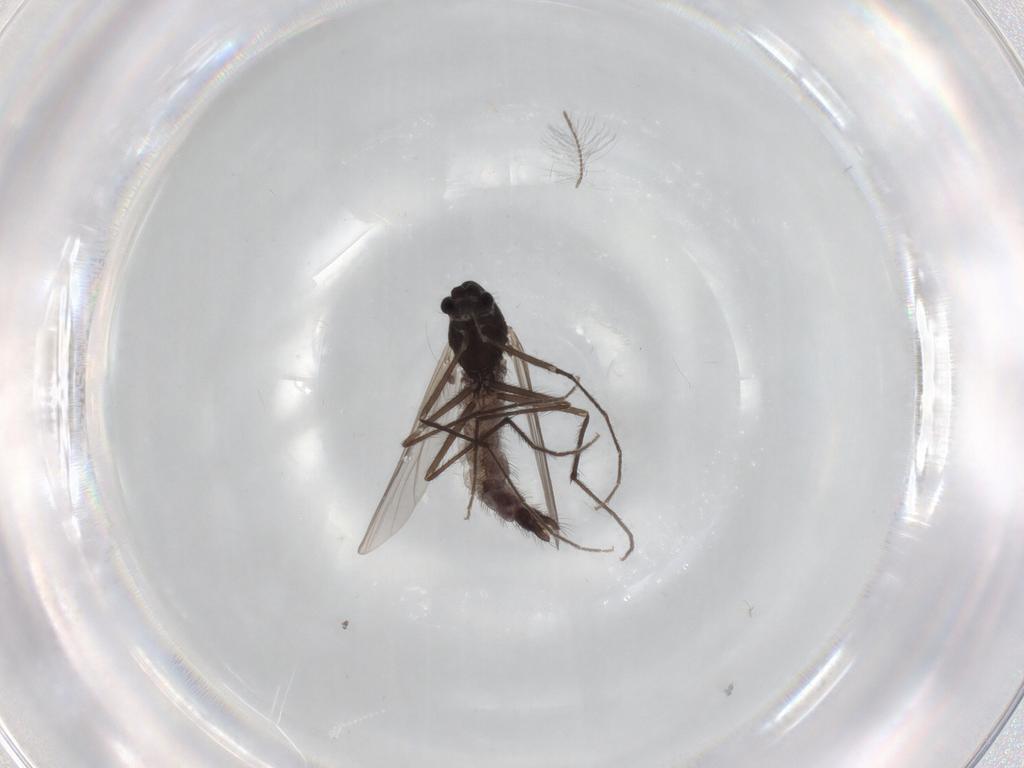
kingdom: Animalia
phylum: Arthropoda
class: Insecta
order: Diptera
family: Chironomidae
